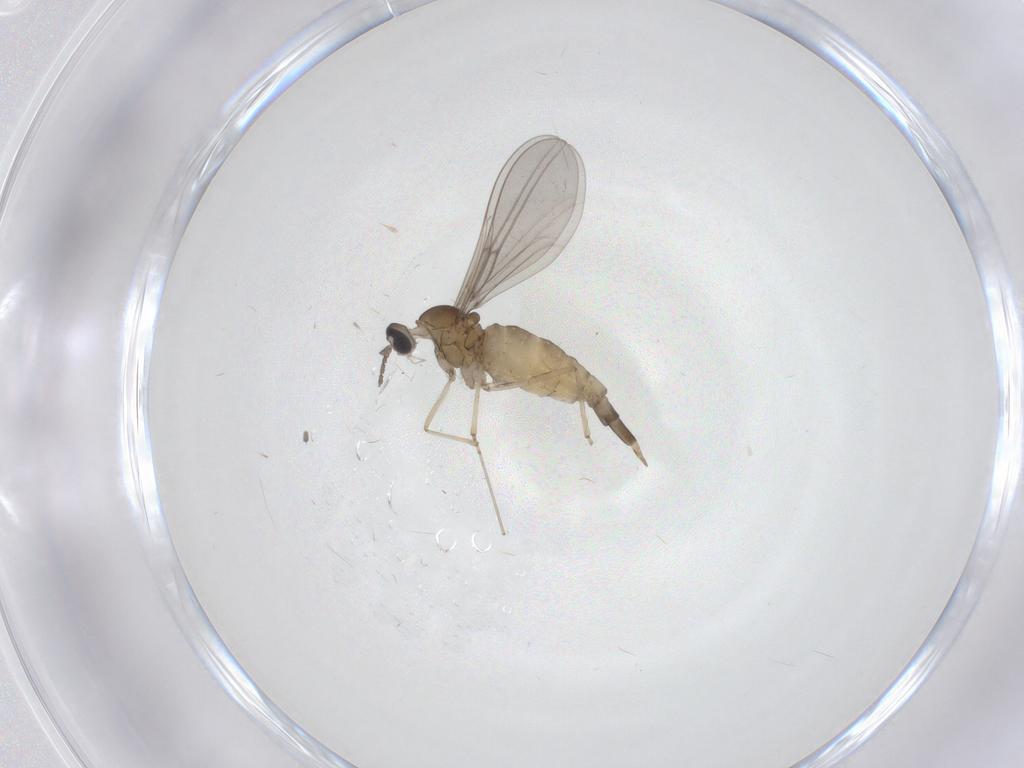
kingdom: Animalia
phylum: Arthropoda
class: Insecta
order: Diptera
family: Cecidomyiidae
